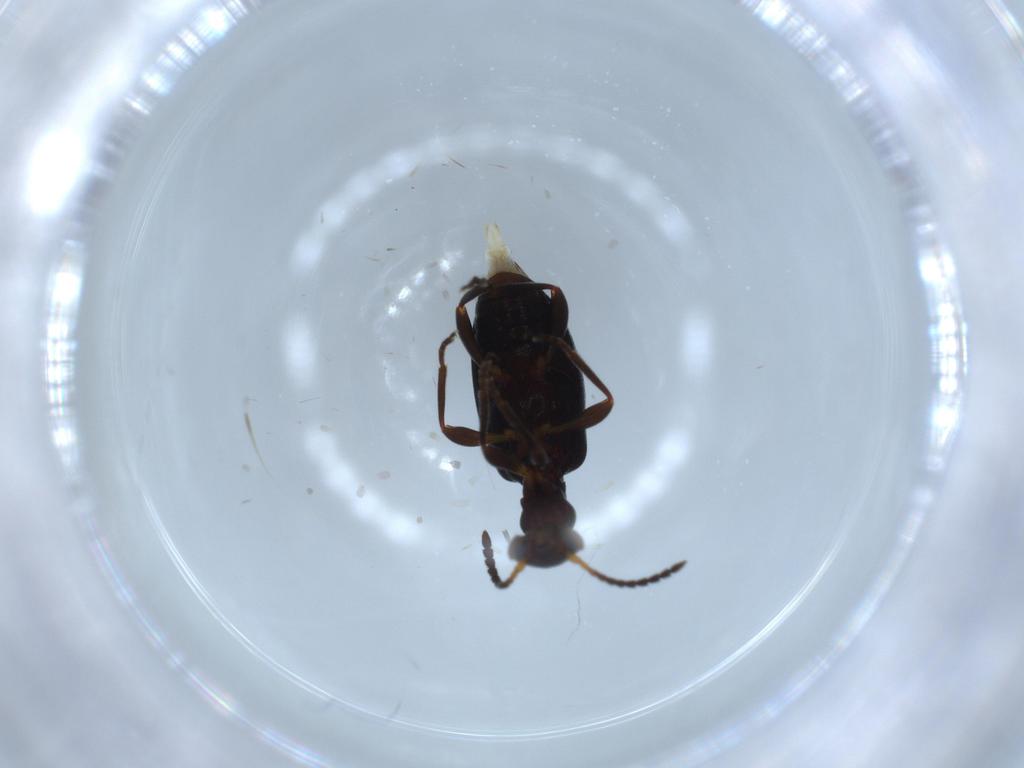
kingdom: Animalia
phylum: Arthropoda
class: Insecta
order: Coleoptera
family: Anthicidae
